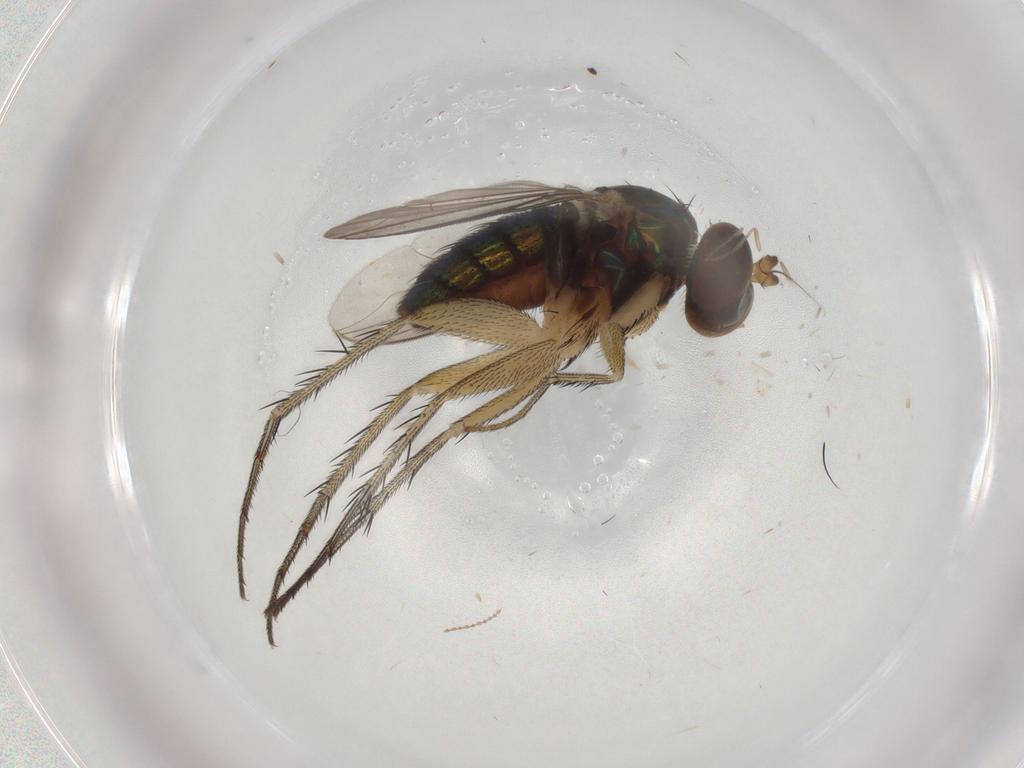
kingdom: Animalia
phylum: Arthropoda
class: Insecta
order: Diptera
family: Dolichopodidae
